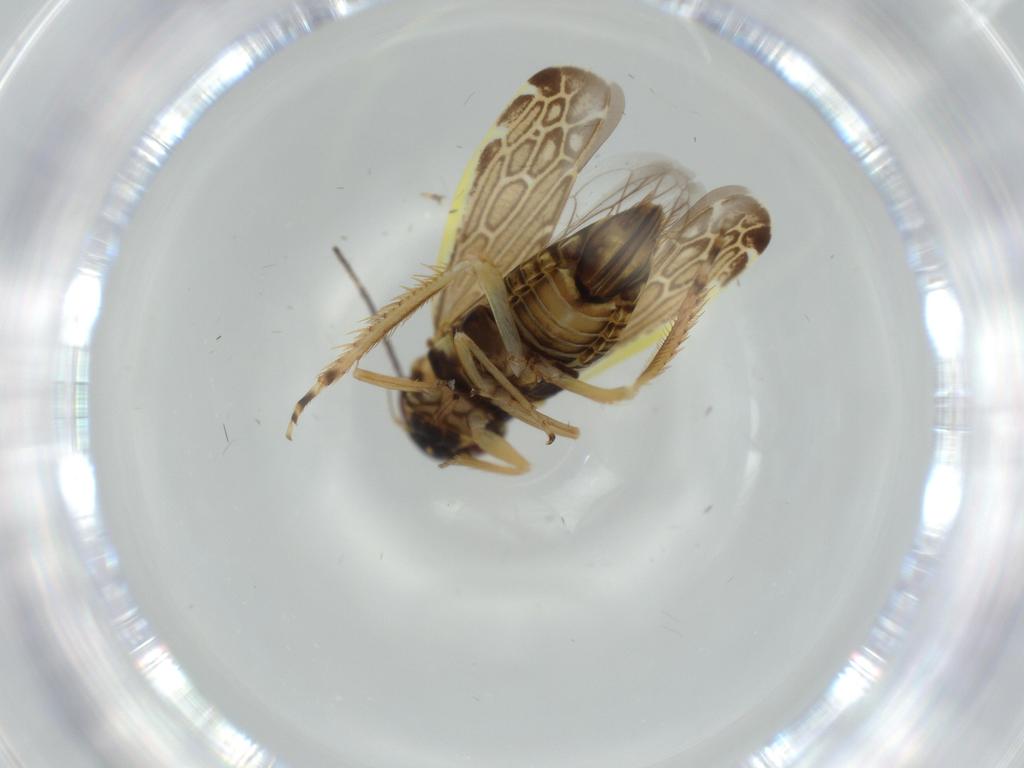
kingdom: Animalia
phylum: Arthropoda
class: Insecta
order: Hemiptera
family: Cicadellidae
